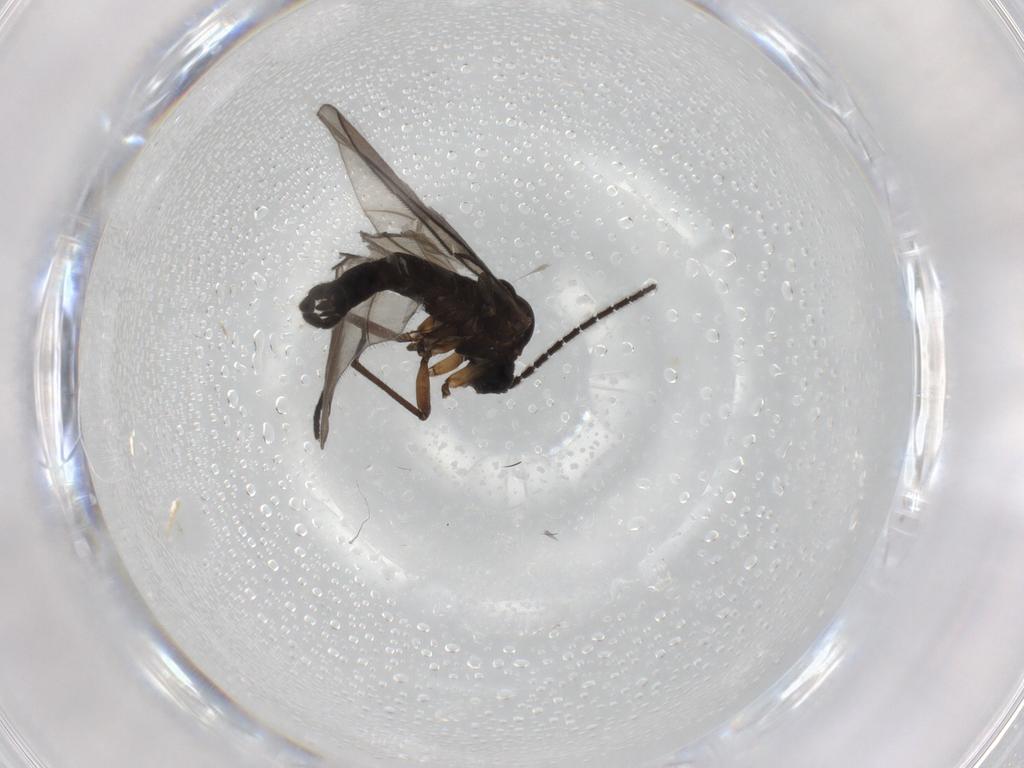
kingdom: Animalia
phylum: Arthropoda
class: Insecta
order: Diptera
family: Sciaridae
